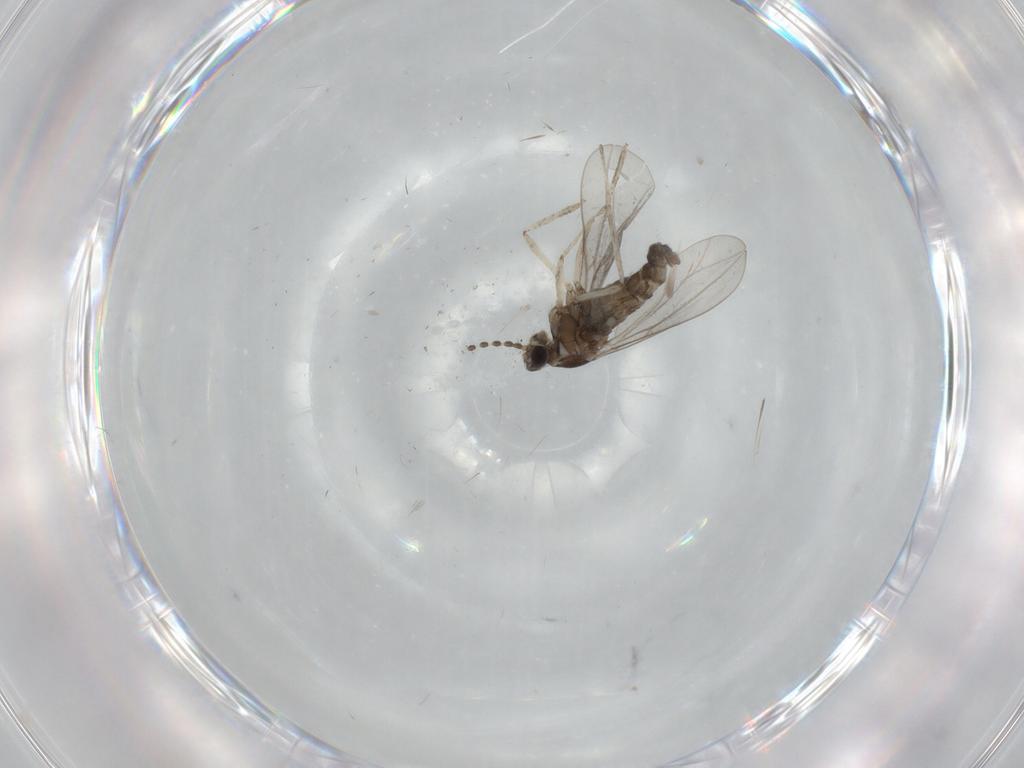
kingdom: Animalia
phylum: Arthropoda
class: Insecta
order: Diptera
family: Cecidomyiidae
